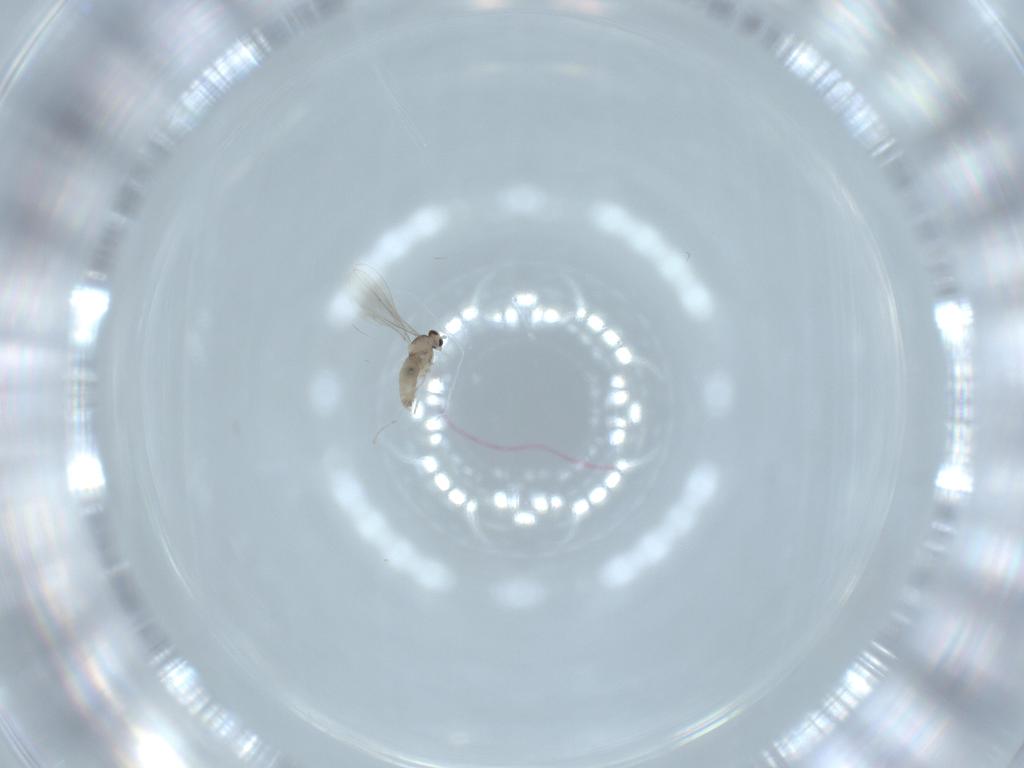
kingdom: Animalia
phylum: Arthropoda
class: Insecta
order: Diptera
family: Cecidomyiidae
